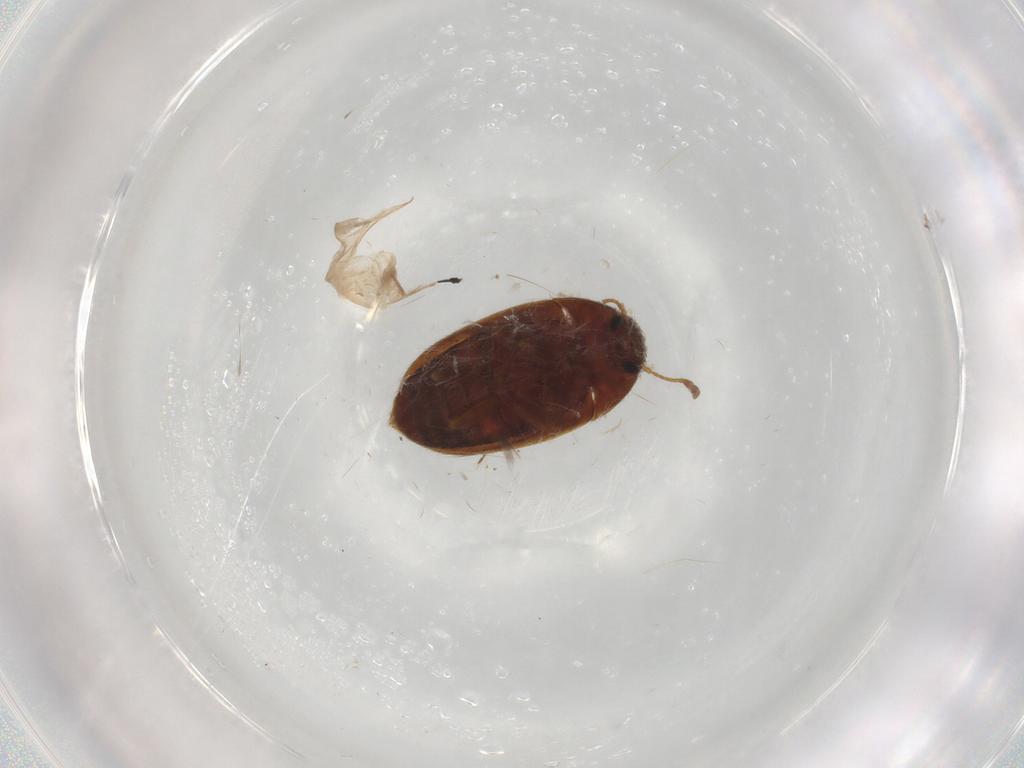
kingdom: Animalia
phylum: Arthropoda
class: Insecta
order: Coleoptera
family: Mycetophagidae
